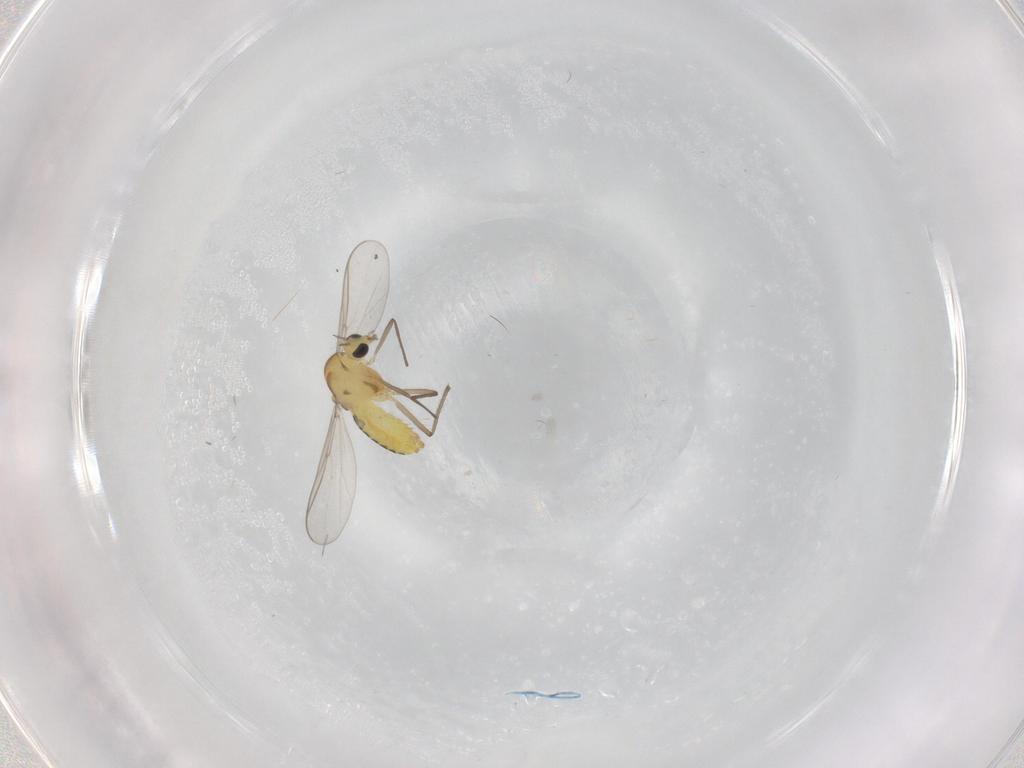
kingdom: Animalia
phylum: Arthropoda
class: Insecta
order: Diptera
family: Chironomidae
